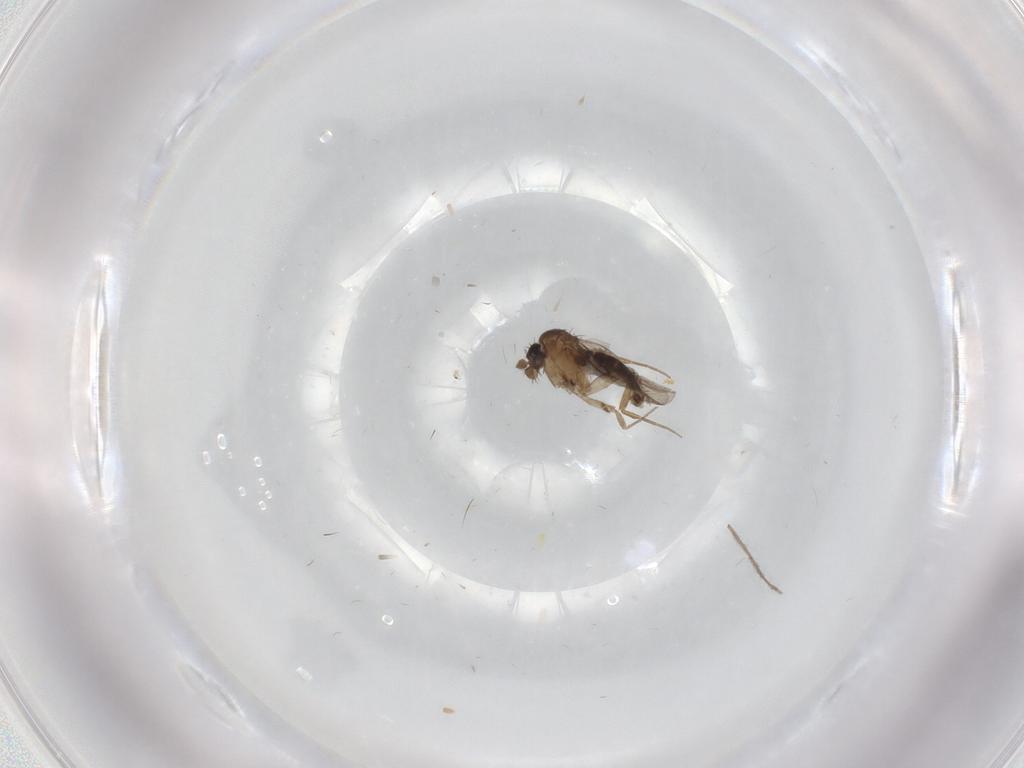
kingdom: Animalia
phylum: Arthropoda
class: Insecta
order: Diptera
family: Phoridae
